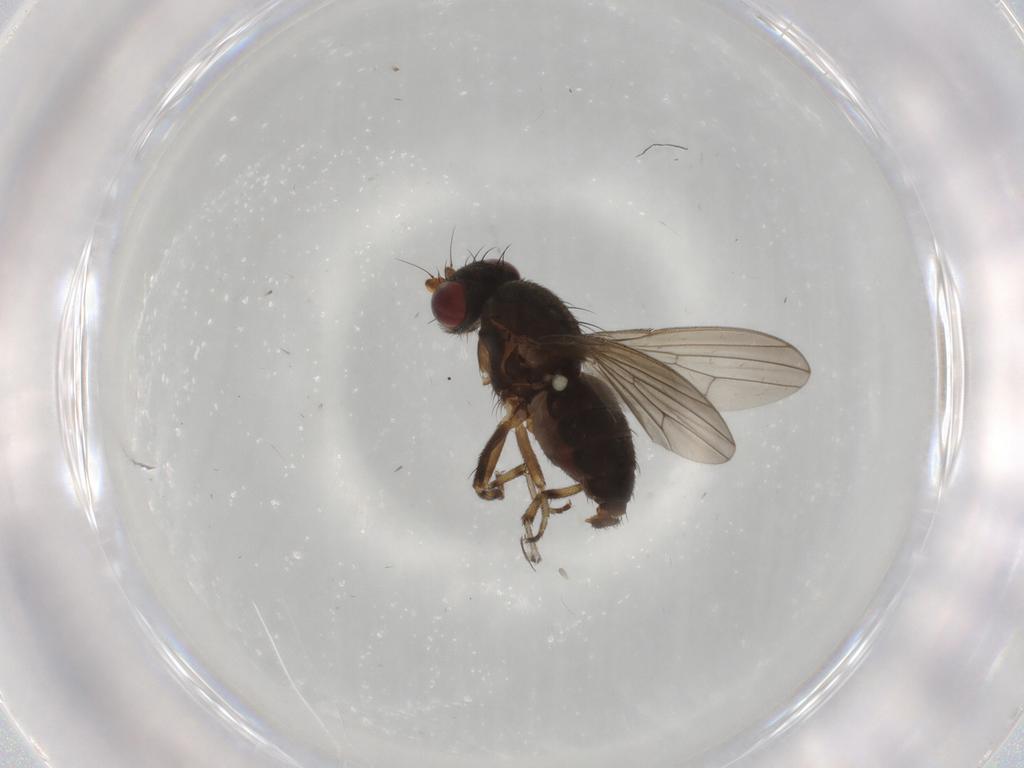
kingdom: Animalia
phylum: Arthropoda
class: Insecta
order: Diptera
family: Heleomyzidae
